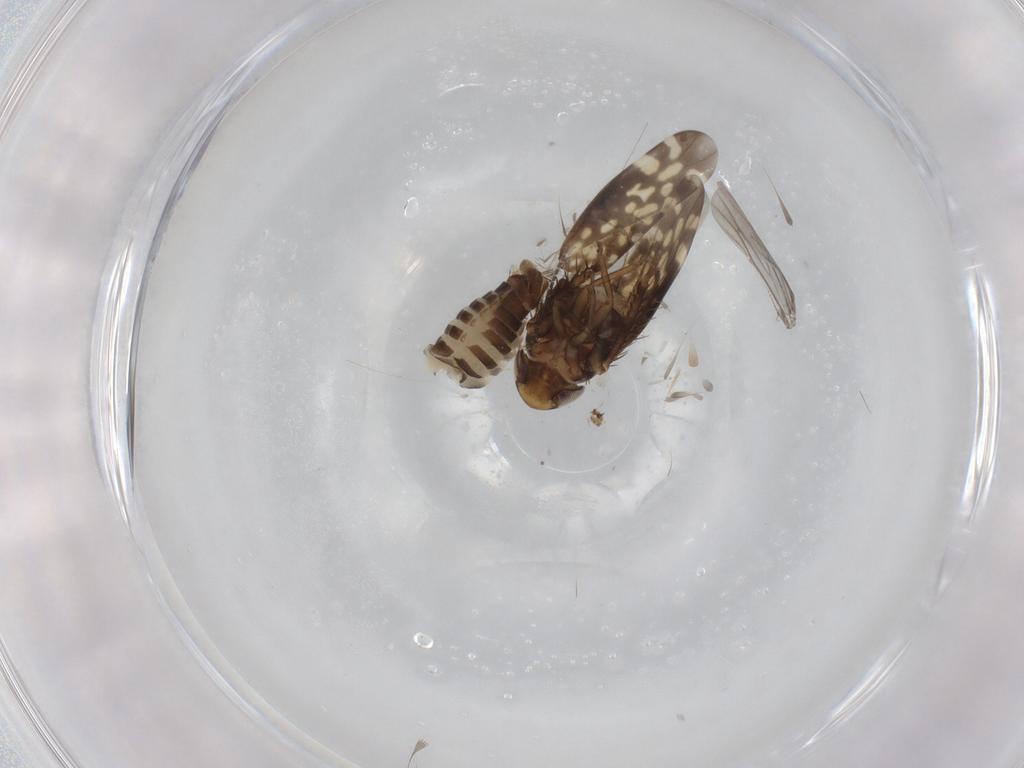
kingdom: Animalia
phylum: Arthropoda
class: Insecta
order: Hemiptera
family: Cicadellidae
